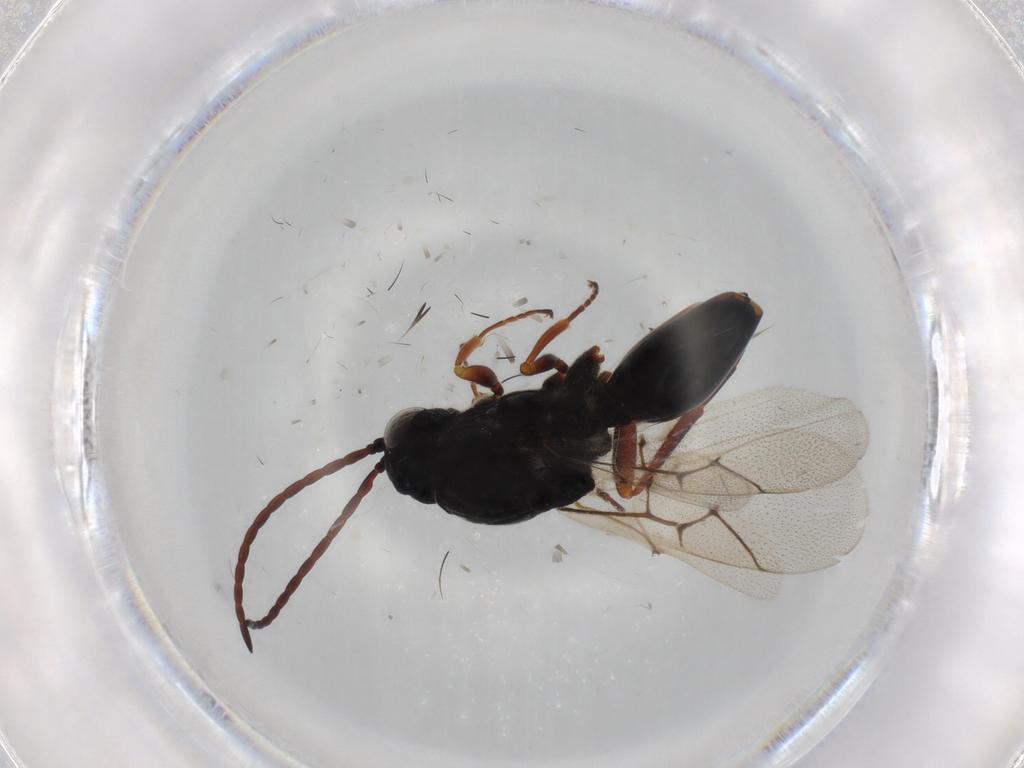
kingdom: Animalia
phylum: Arthropoda
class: Insecta
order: Hymenoptera
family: Torymidae
